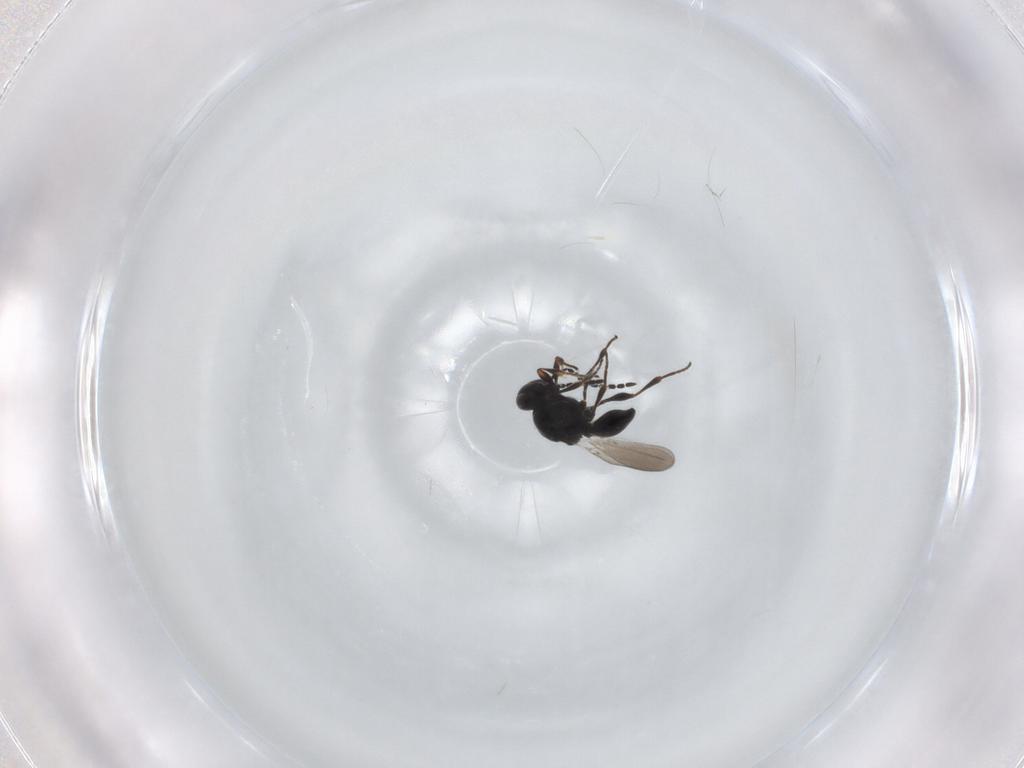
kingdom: Animalia
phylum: Arthropoda
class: Insecta
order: Hymenoptera
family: Platygastridae
